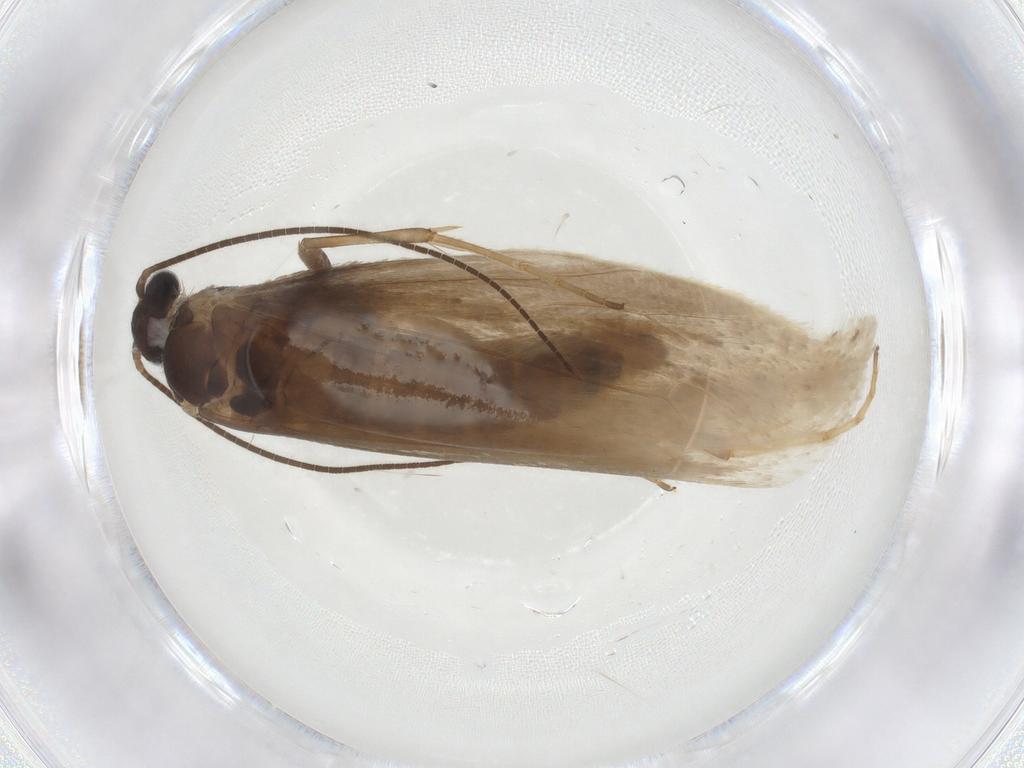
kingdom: Animalia
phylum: Arthropoda
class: Insecta
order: Lepidoptera
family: Tridentaformidae
